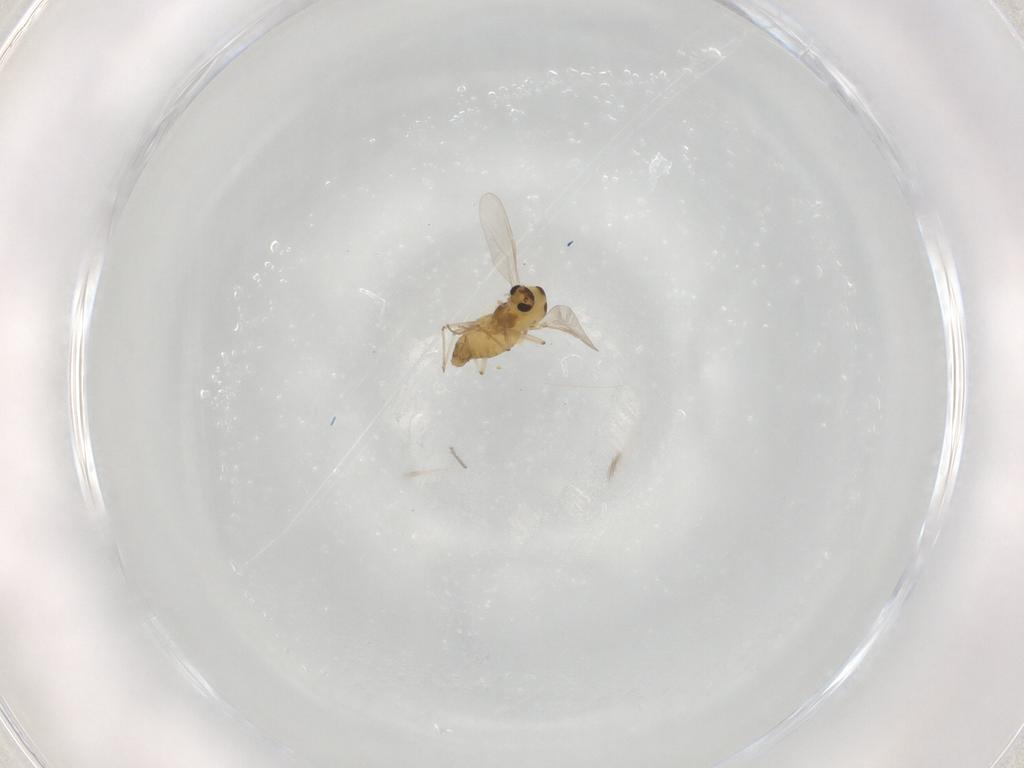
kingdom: Animalia
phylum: Arthropoda
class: Insecta
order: Diptera
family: Chironomidae
